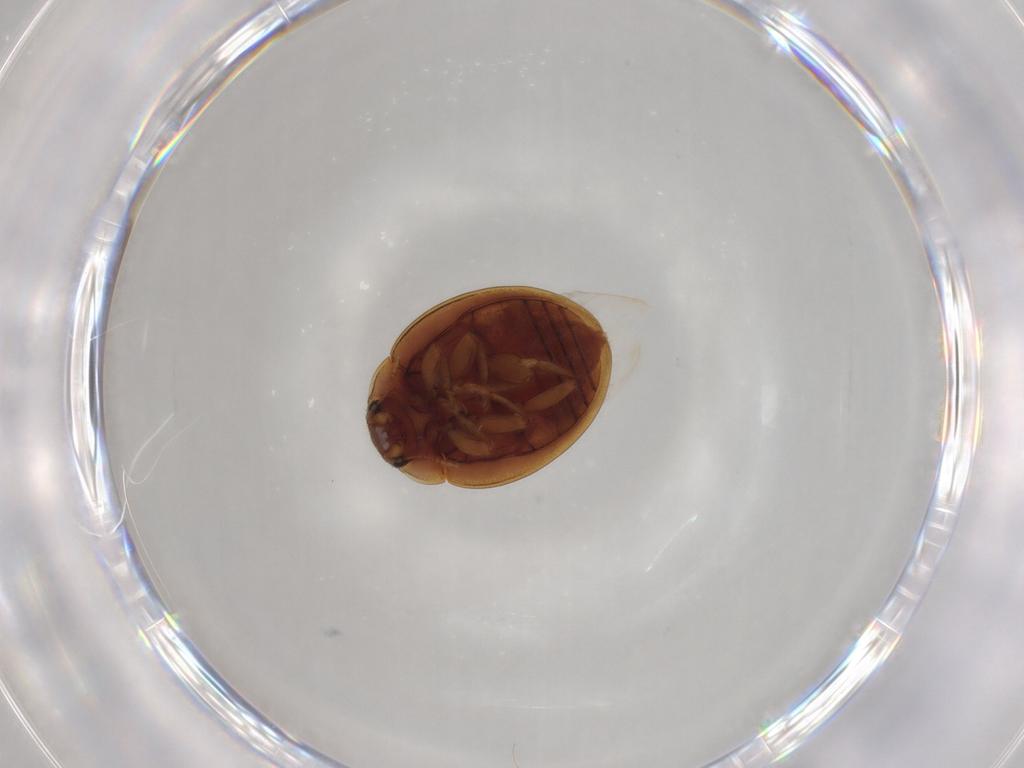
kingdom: Animalia
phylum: Arthropoda
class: Insecta
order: Coleoptera
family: Coccinellidae
